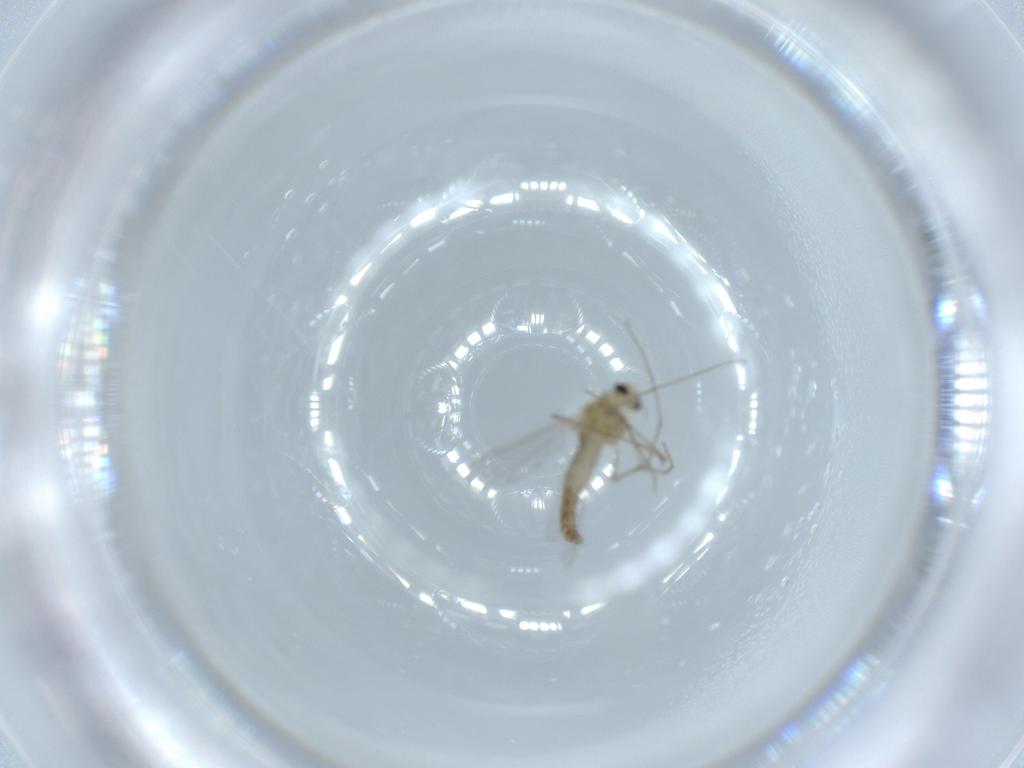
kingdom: Animalia
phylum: Arthropoda
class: Insecta
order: Diptera
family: Chironomidae
